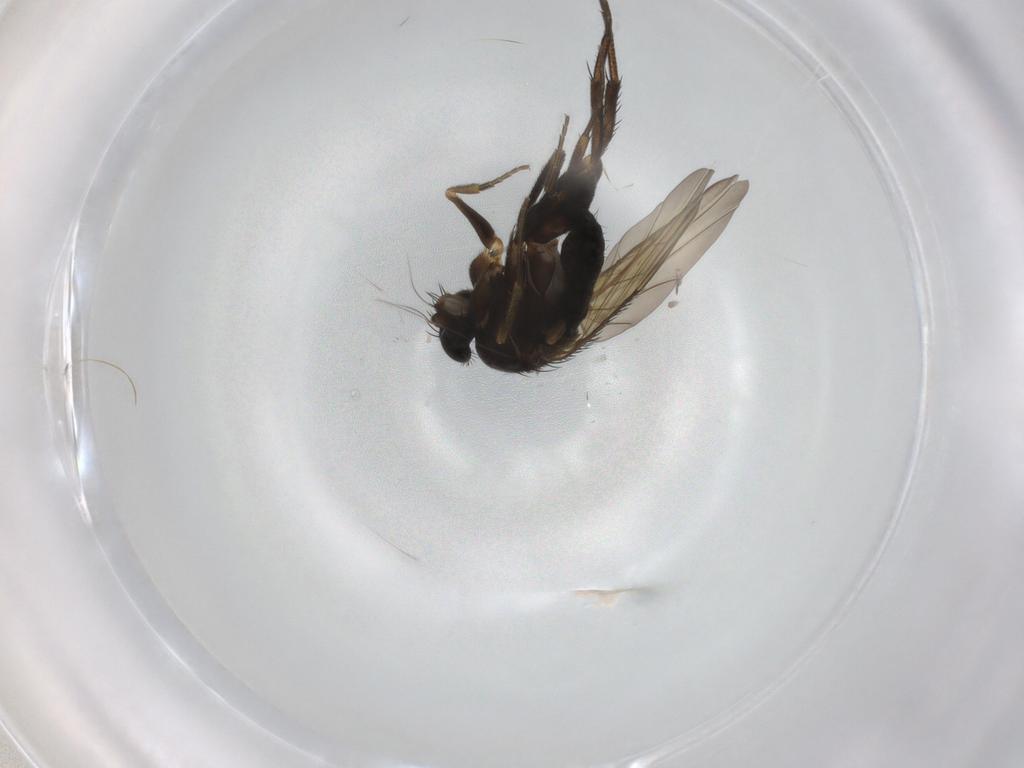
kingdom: Animalia
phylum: Arthropoda
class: Insecta
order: Diptera
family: Phoridae
